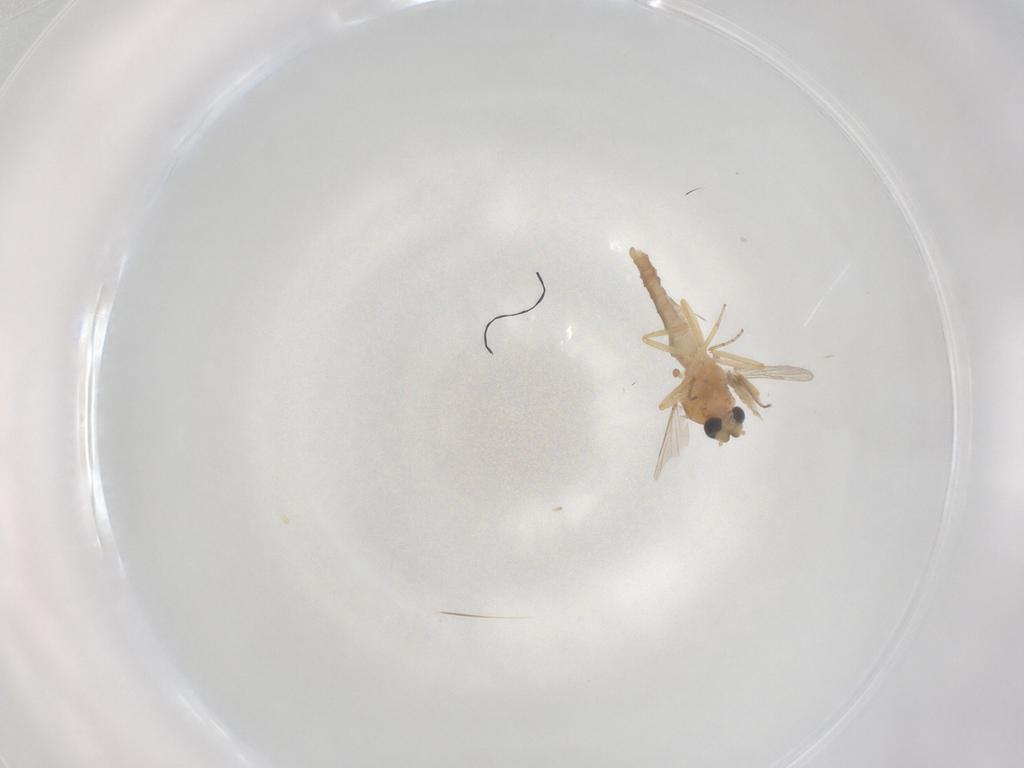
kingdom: Animalia
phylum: Arthropoda
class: Insecta
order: Diptera
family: Ceratopogonidae
